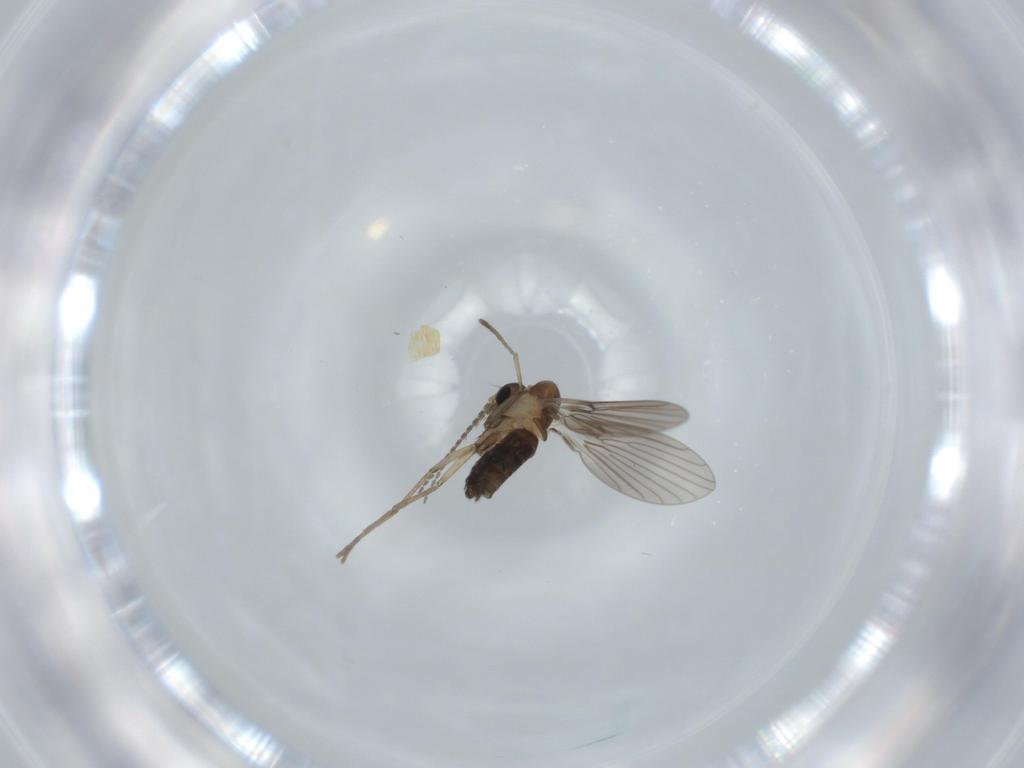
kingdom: Animalia
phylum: Arthropoda
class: Insecta
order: Diptera
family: Psychodidae
